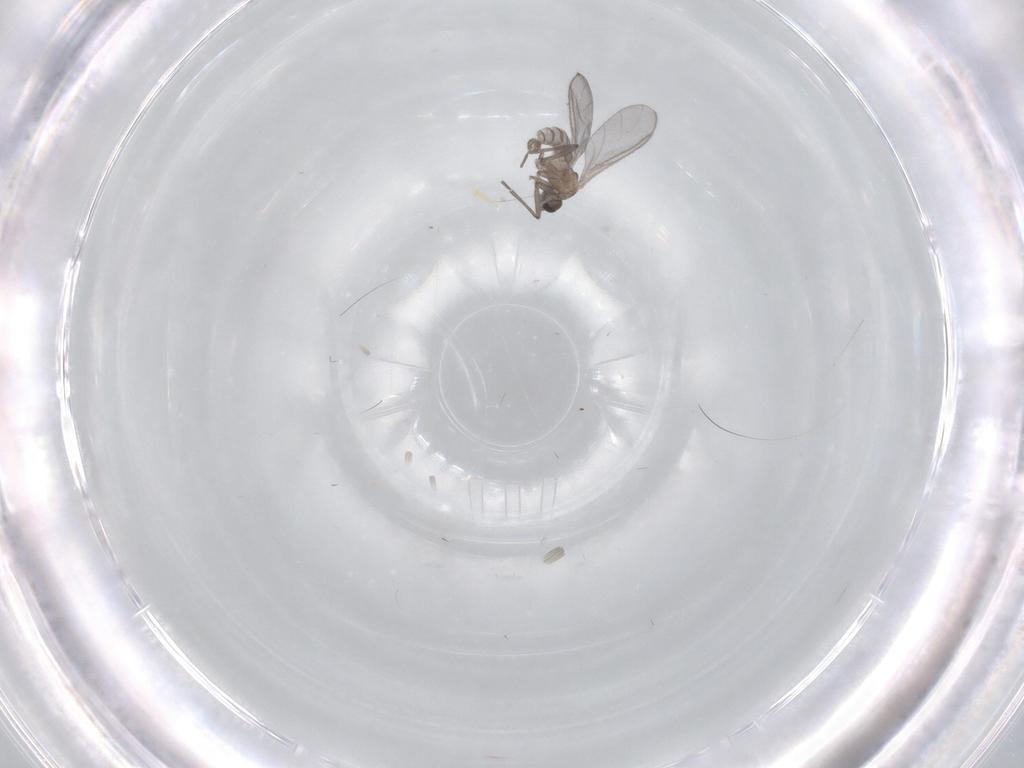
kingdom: Animalia
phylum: Arthropoda
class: Insecta
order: Diptera
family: Sciaridae
